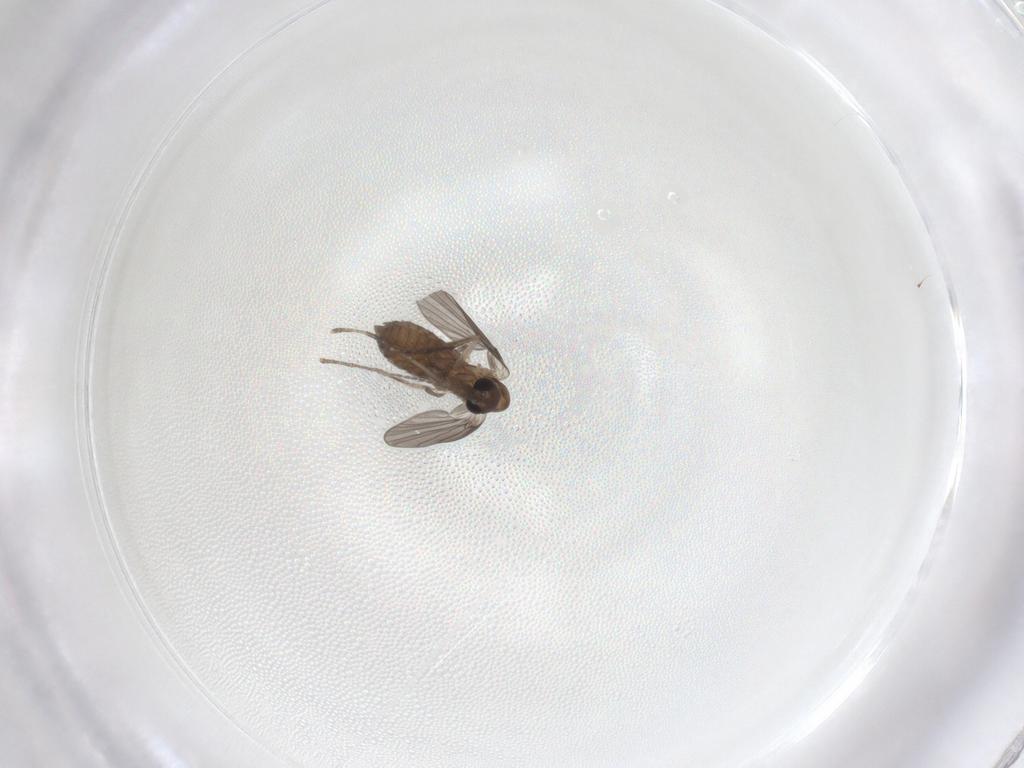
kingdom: Animalia
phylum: Arthropoda
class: Insecta
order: Diptera
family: Psychodidae
